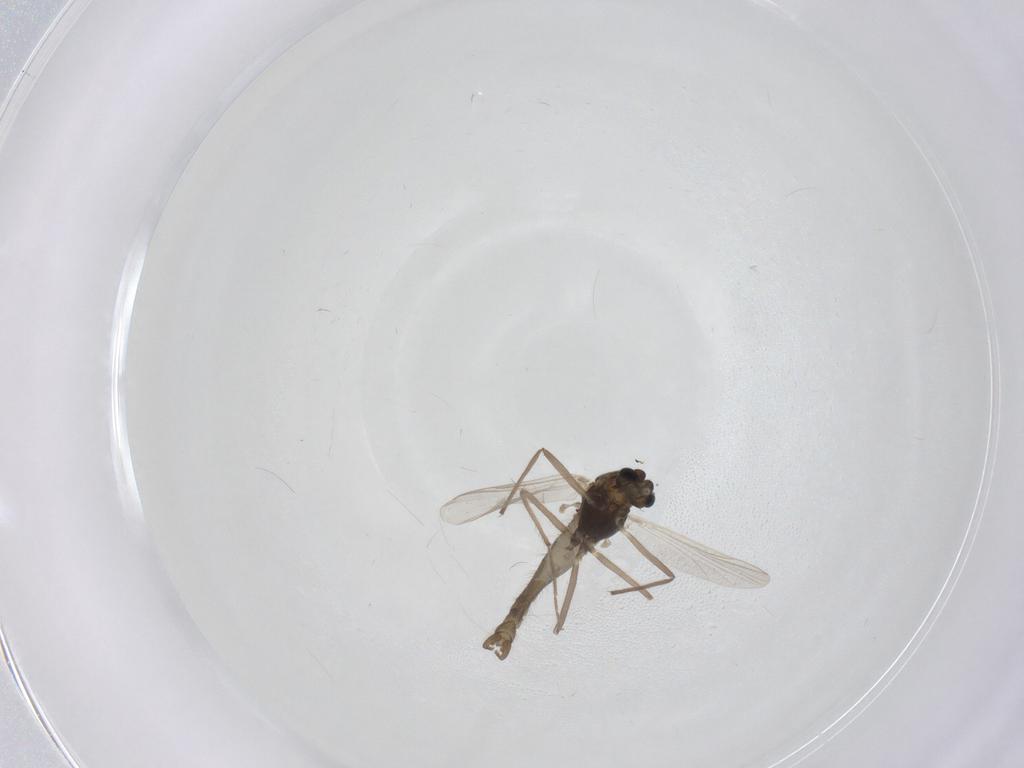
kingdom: Animalia
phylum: Arthropoda
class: Insecta
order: Diptera
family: Chironomidae
